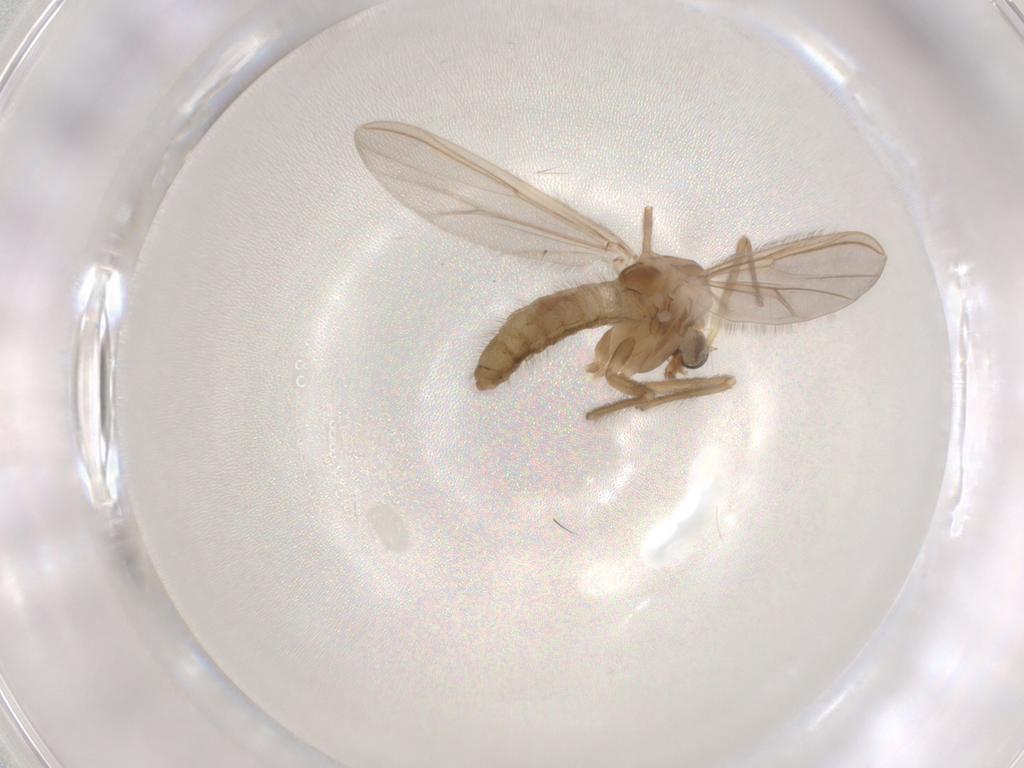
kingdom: Animalia
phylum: Arthropoda
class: Insecta
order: Diptera
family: Chironomidae
